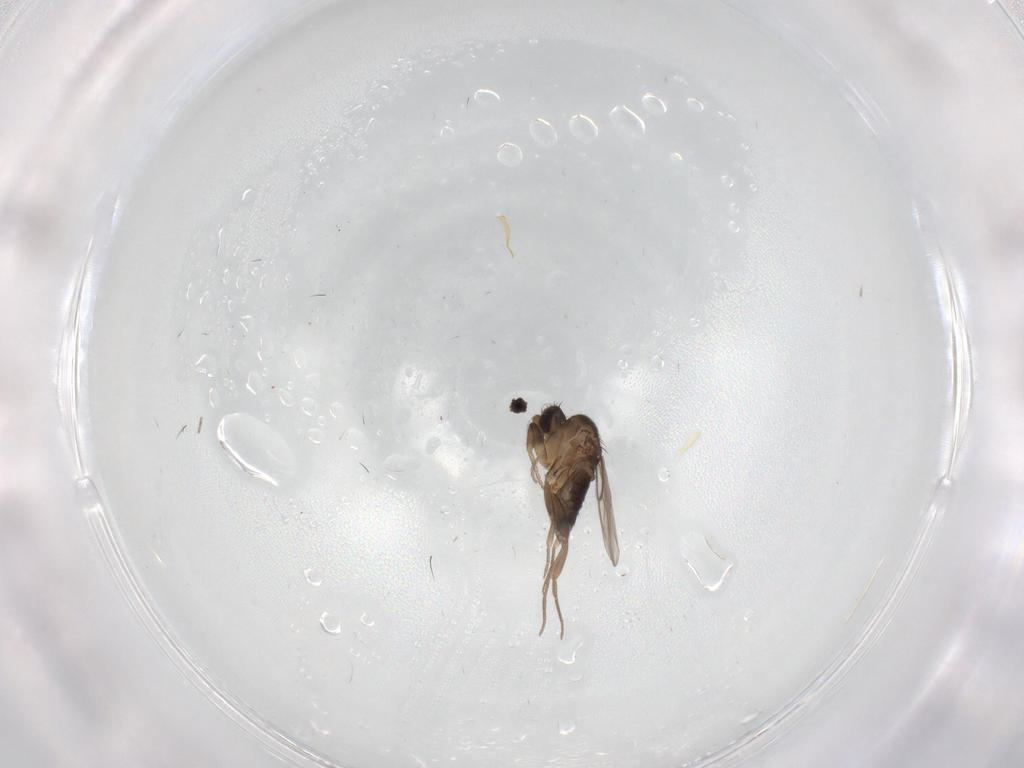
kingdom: Animalia
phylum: Arthropoda
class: Insecta
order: Diptera
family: Phoridae
